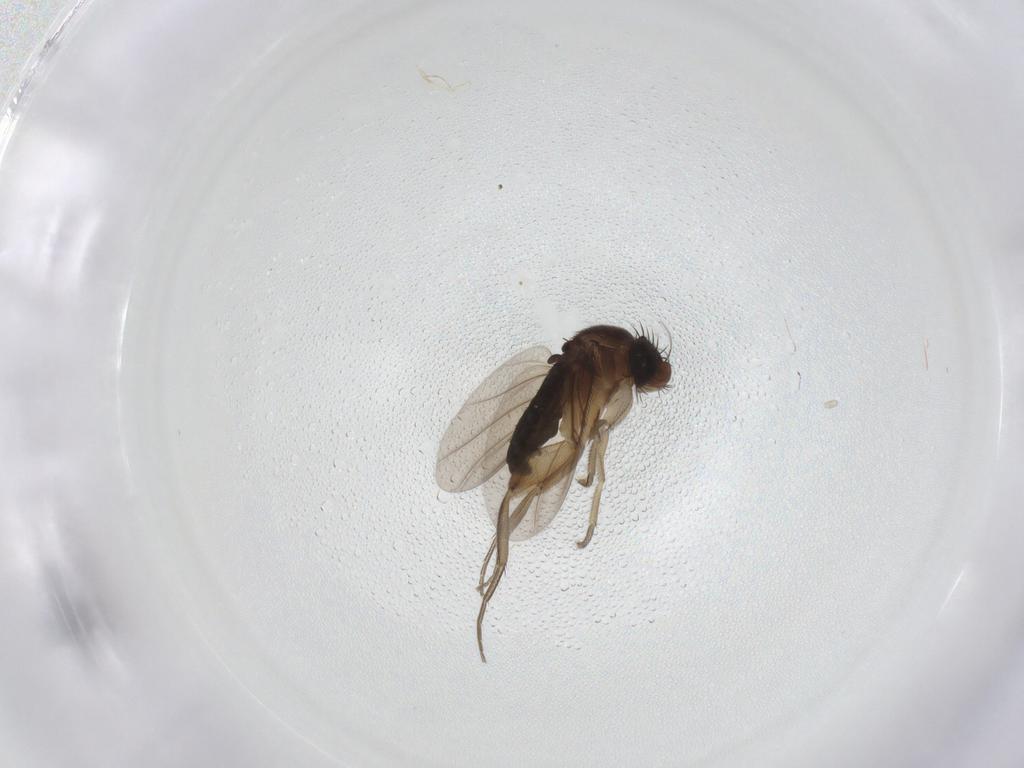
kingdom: Animalia
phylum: Arthropoda
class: Insecta
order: Diptera
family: Phoridae
